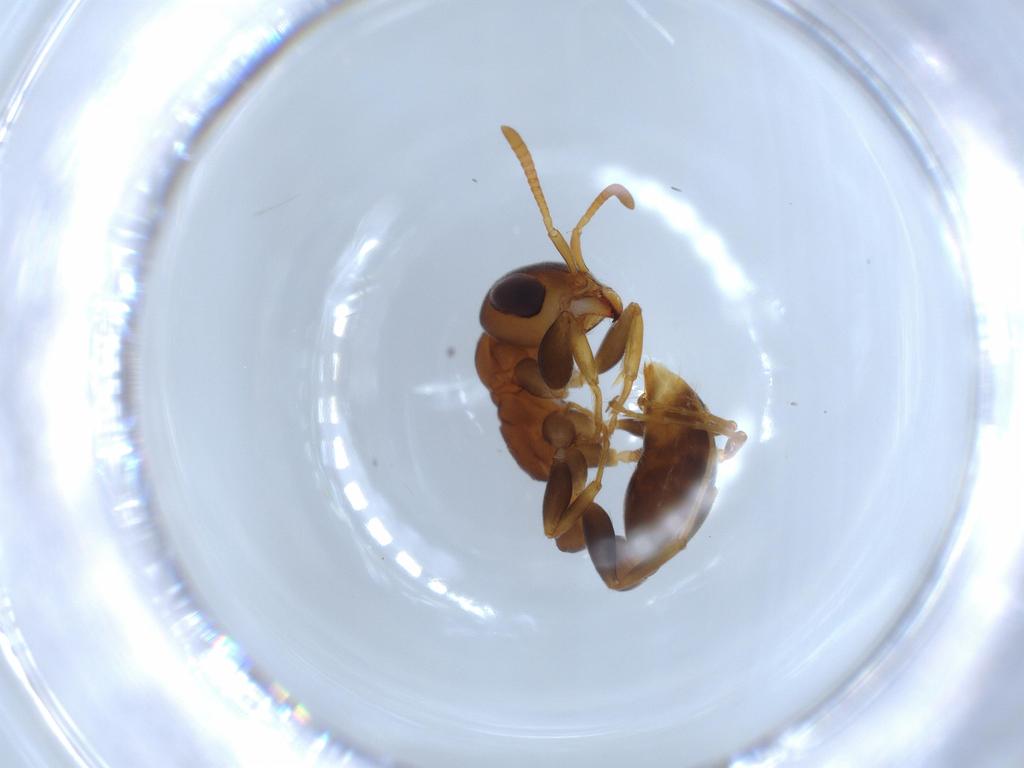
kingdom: Animalia
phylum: Arthropoda
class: Insecta
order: Hymenoptera
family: Formicidae
